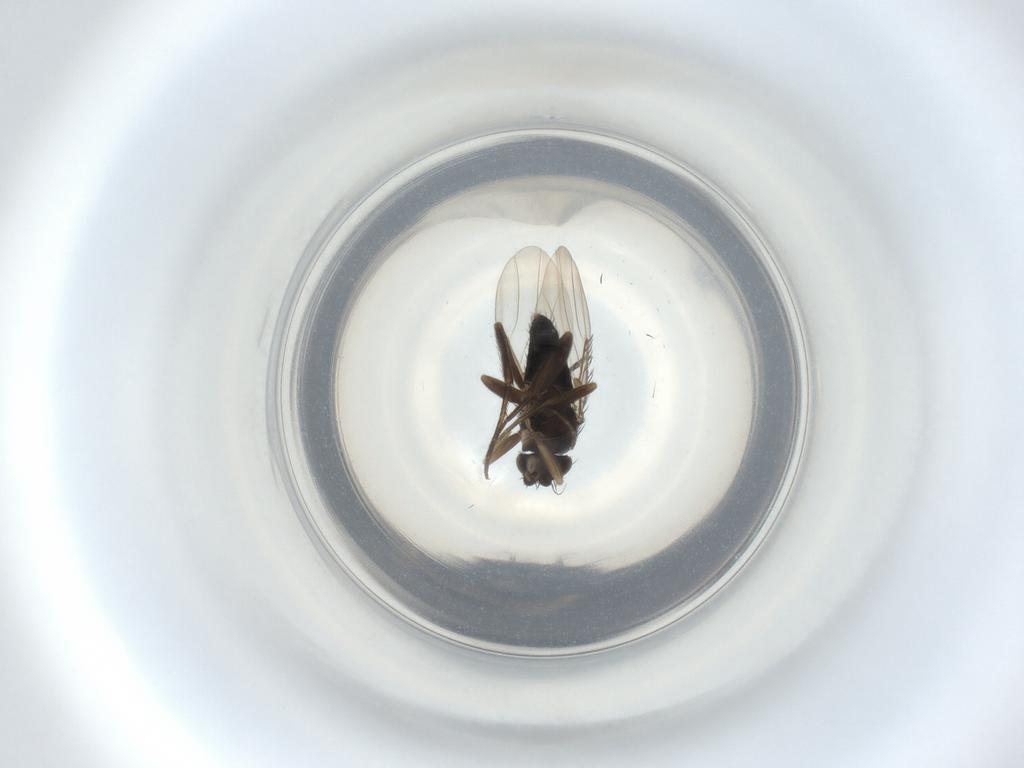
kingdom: Animalia
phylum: Arthropoda
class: Insecta
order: Diptera
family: Phoridae
